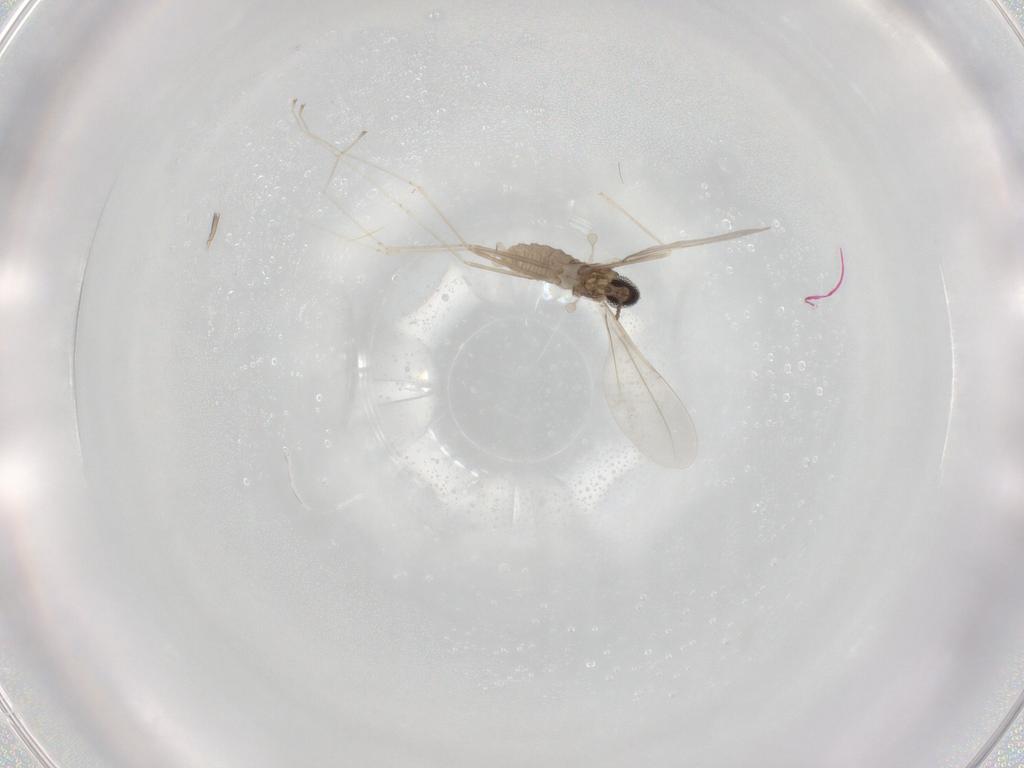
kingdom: Animalia
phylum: Arthropoda
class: Insecta
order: Diptera
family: Cecidomyiidae
